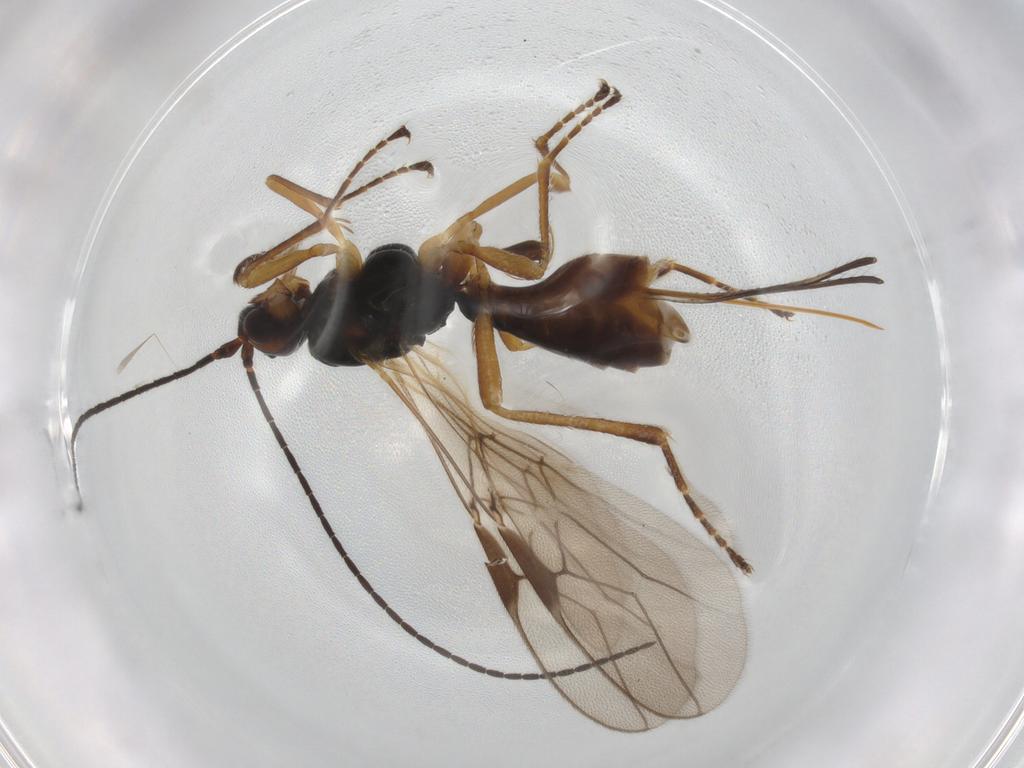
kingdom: Animalia
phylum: Arthropoda
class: Insecta
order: Hymenoptera
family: Braconidae
